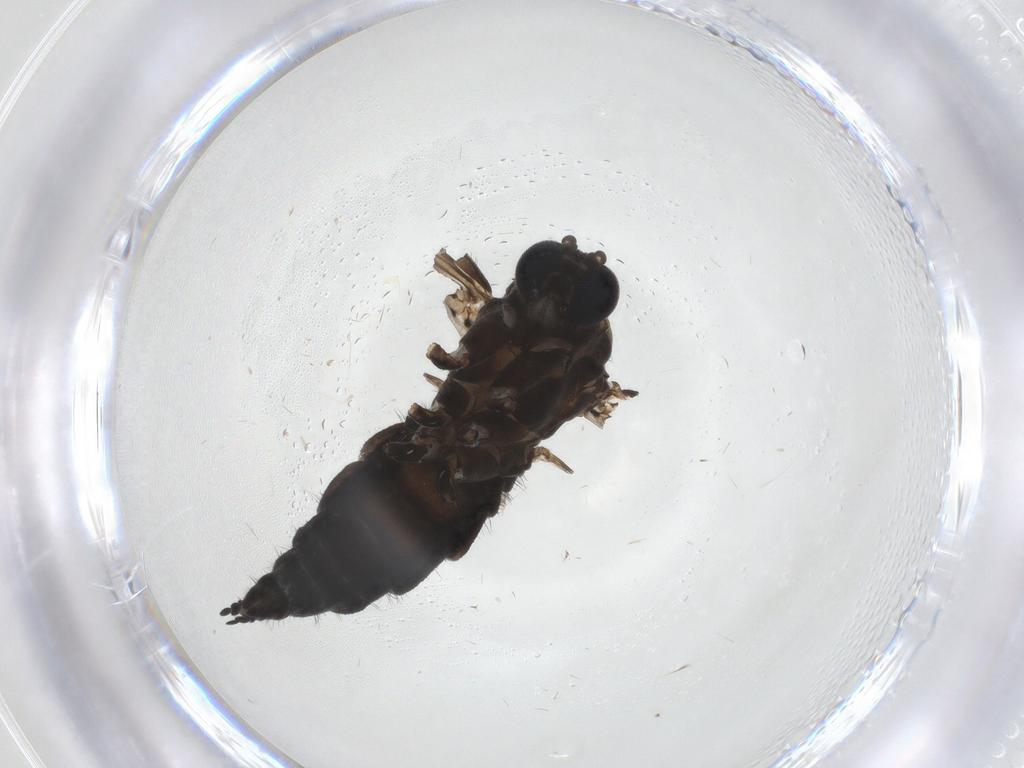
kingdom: Animalia
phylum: Arthropoda
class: Insecta
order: Diptera
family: Sciaridae
